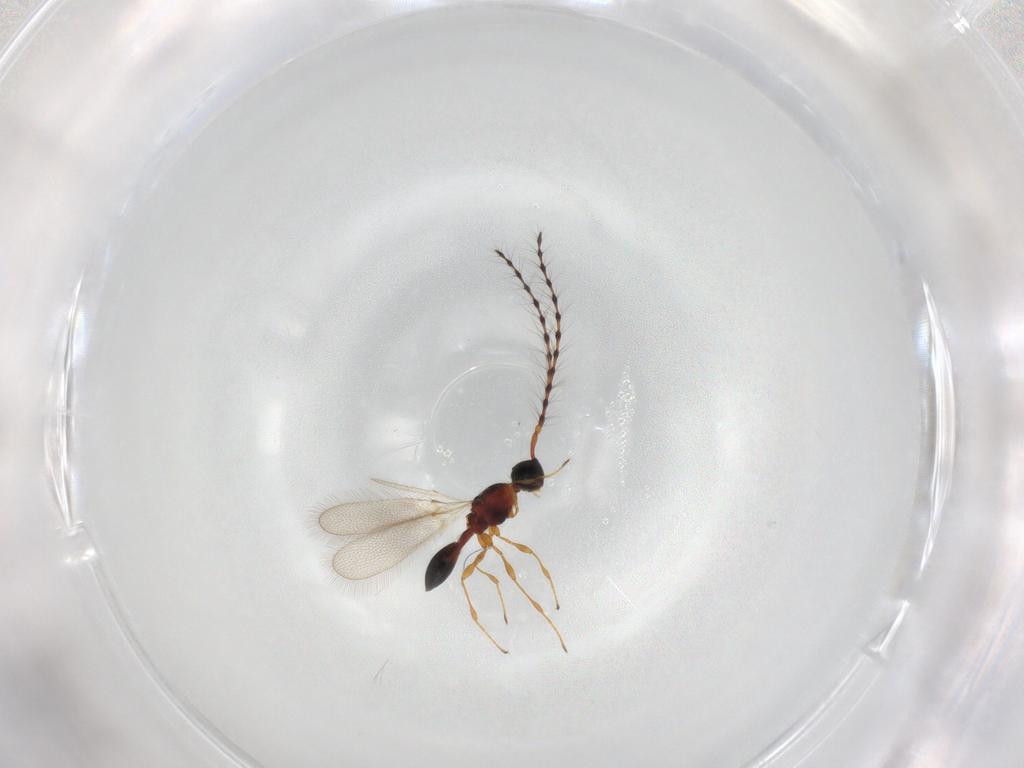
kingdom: Animalia
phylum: Arthropoda
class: Insecta
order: Hymenoptera
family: Diapriidae
